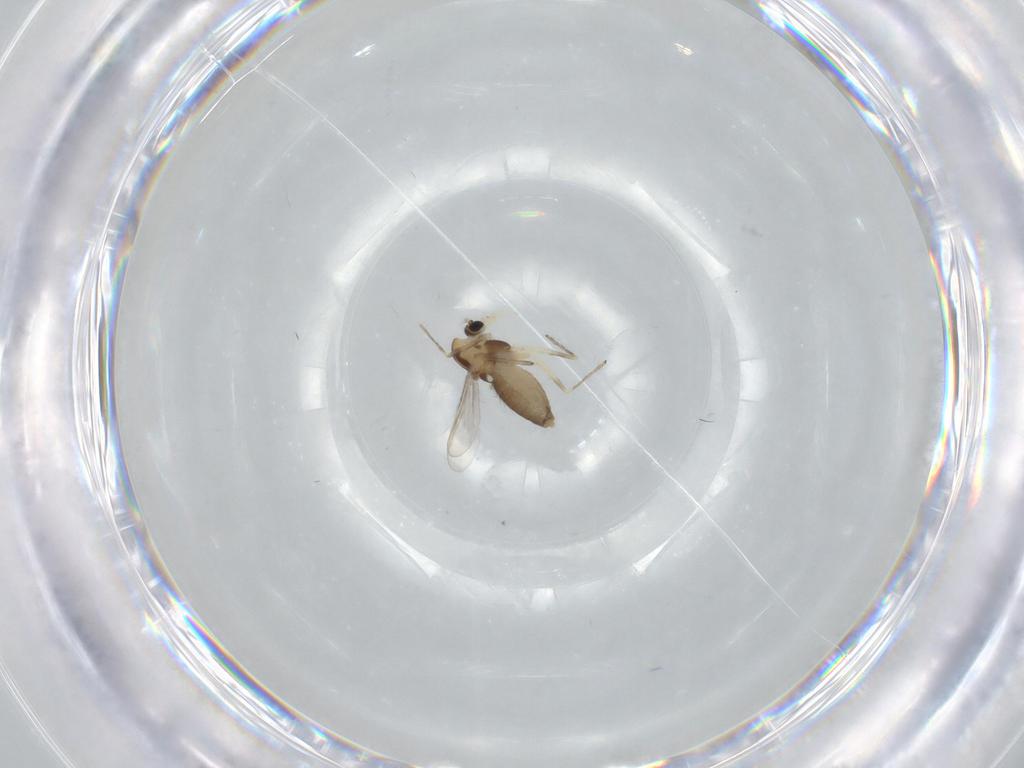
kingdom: Animalia
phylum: Arthropoda
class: Insecta
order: Diptera
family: Chironomidae
